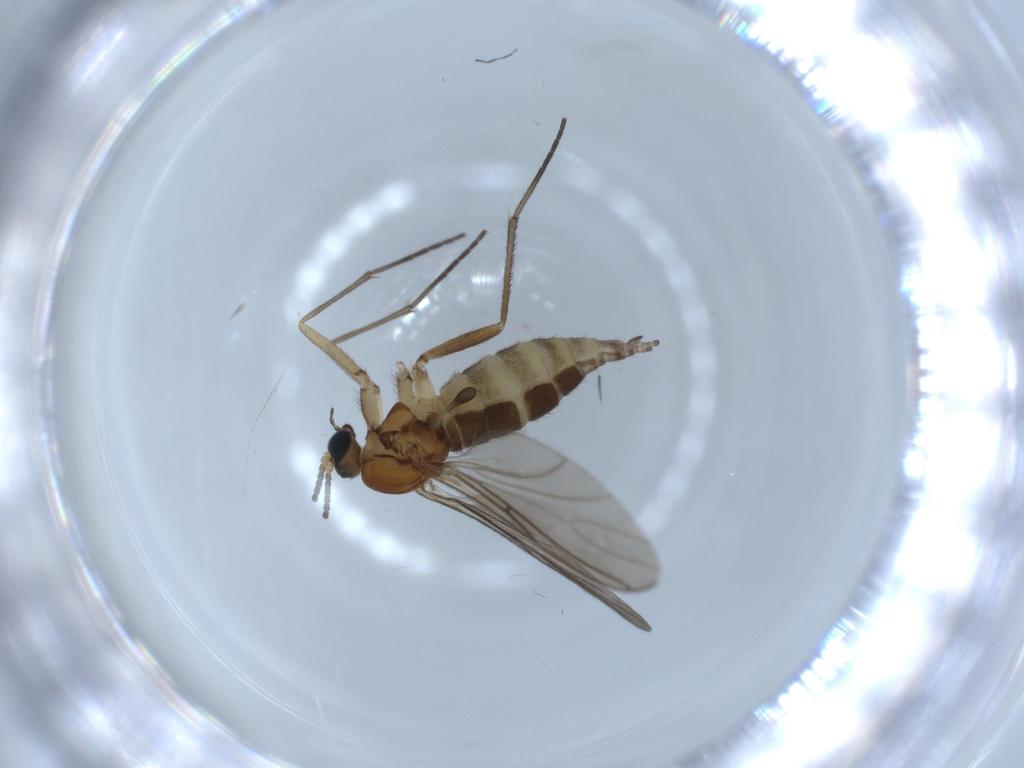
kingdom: Animalia
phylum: Arthropoda
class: Insecta
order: Diptera
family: Sciaridae
